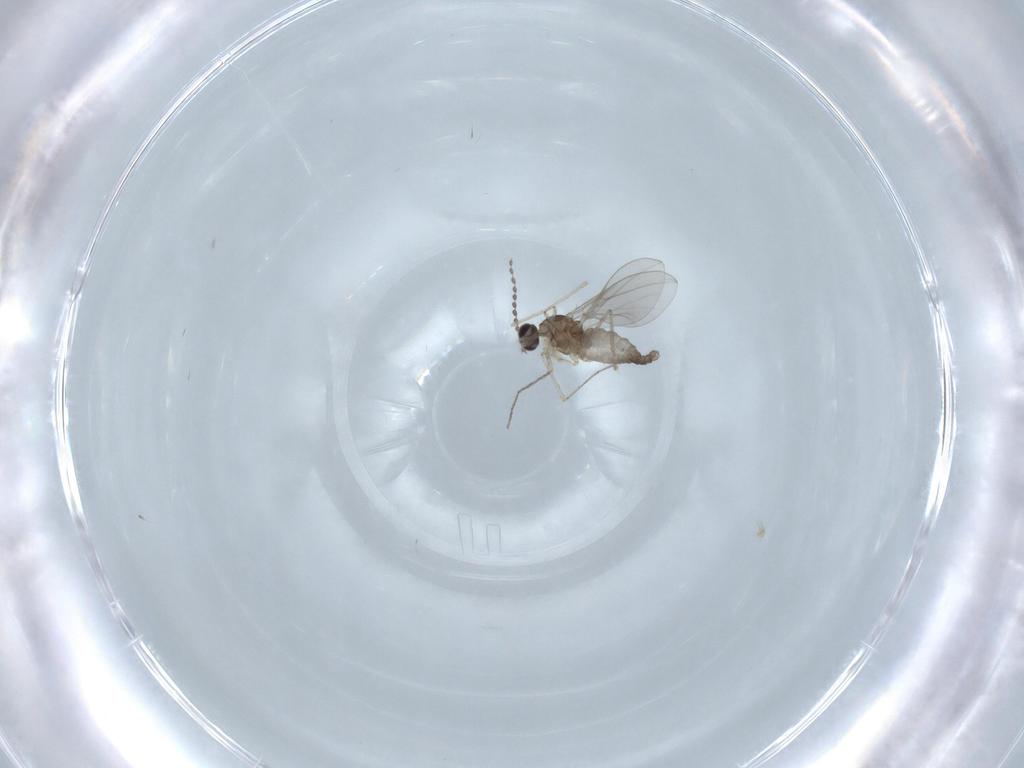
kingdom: Animalia
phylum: Arthropoda
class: Insecta
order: Diptera
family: Cecidomyiidae
